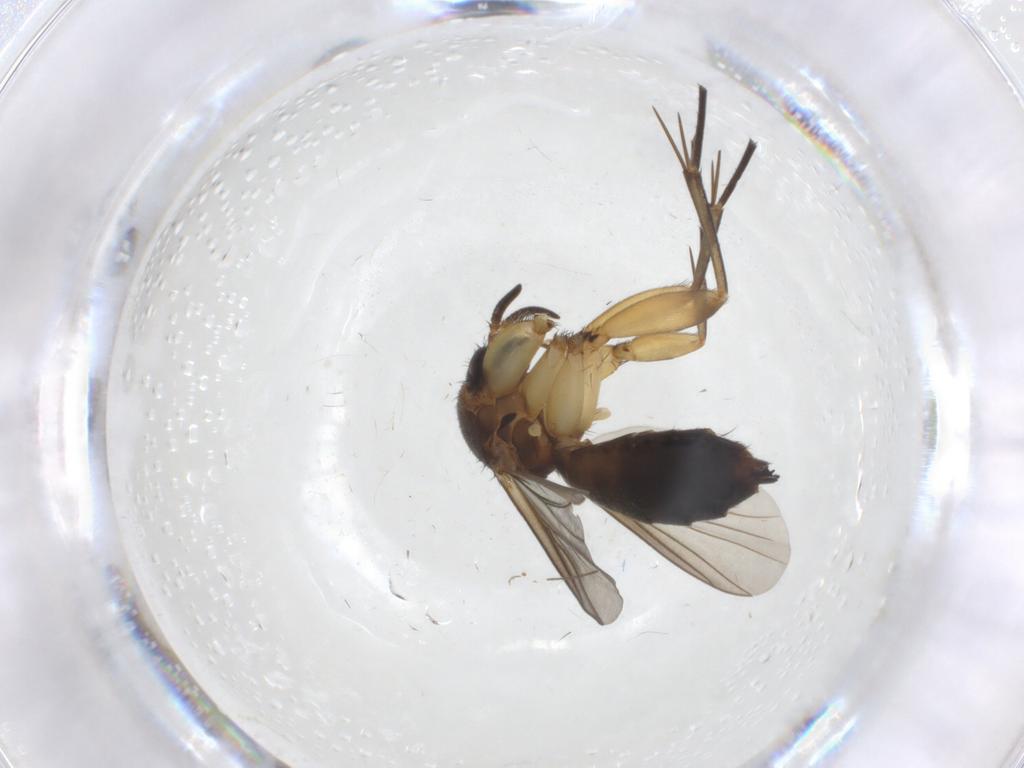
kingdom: Animalia
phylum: Arthropoda
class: Insecta
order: Diptera
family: Mycetophilidae
